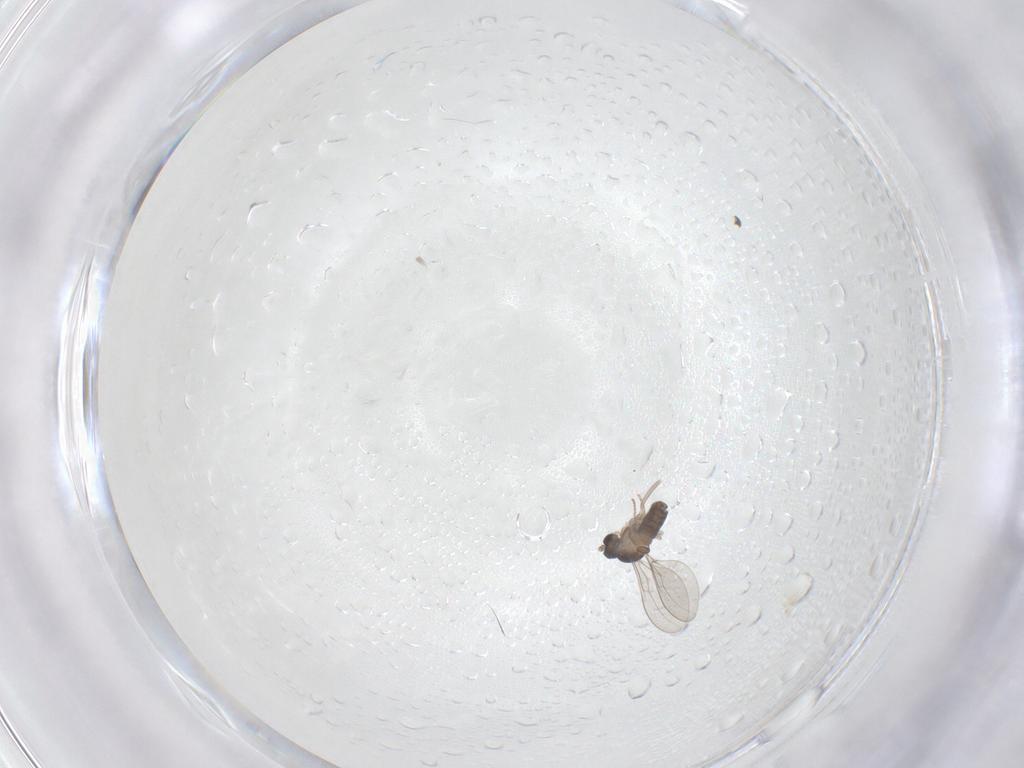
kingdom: Animalia
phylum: Arthropoda
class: Insecta
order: Diptera
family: Cecidomyiidae
